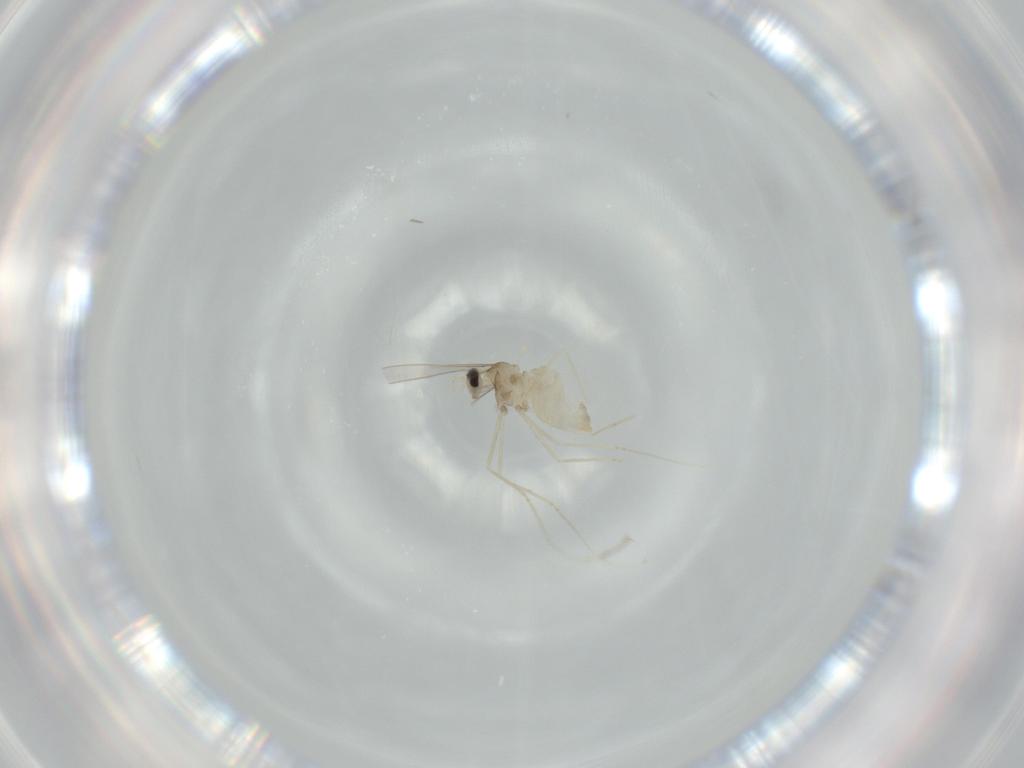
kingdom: Animalia
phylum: Arthropoda
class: Insecta
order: Diptera
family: Cecidomyiidae
